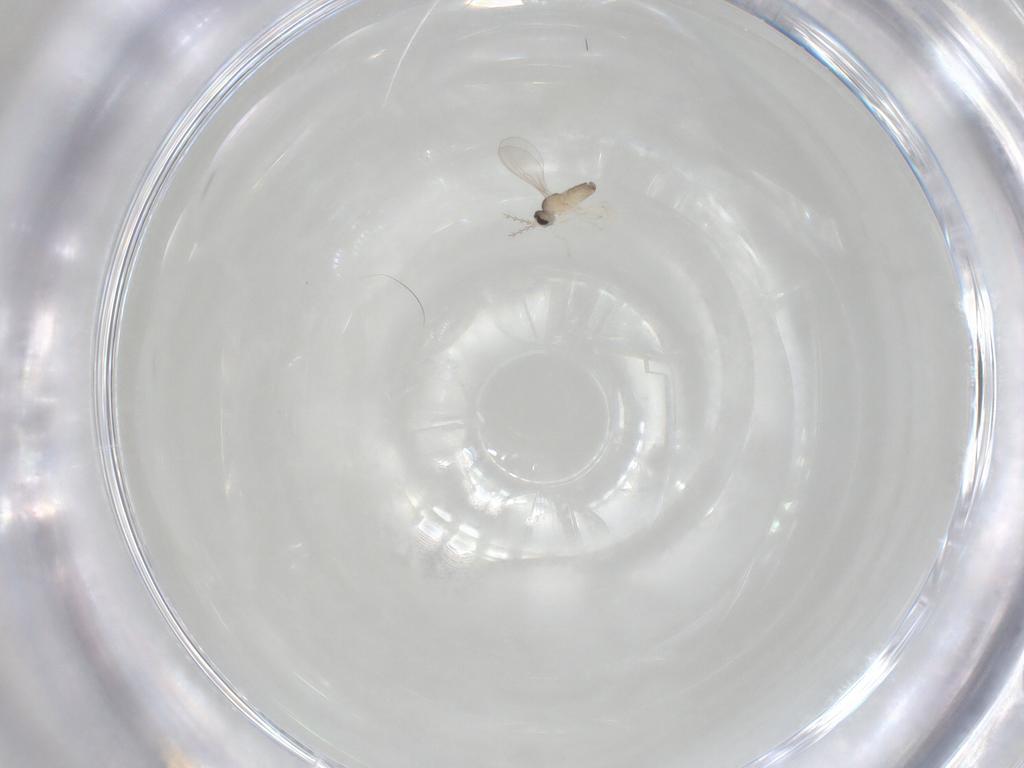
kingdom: Animalia
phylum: Arthropoda
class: Insecta
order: Diptera
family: Cecidomyiidae
